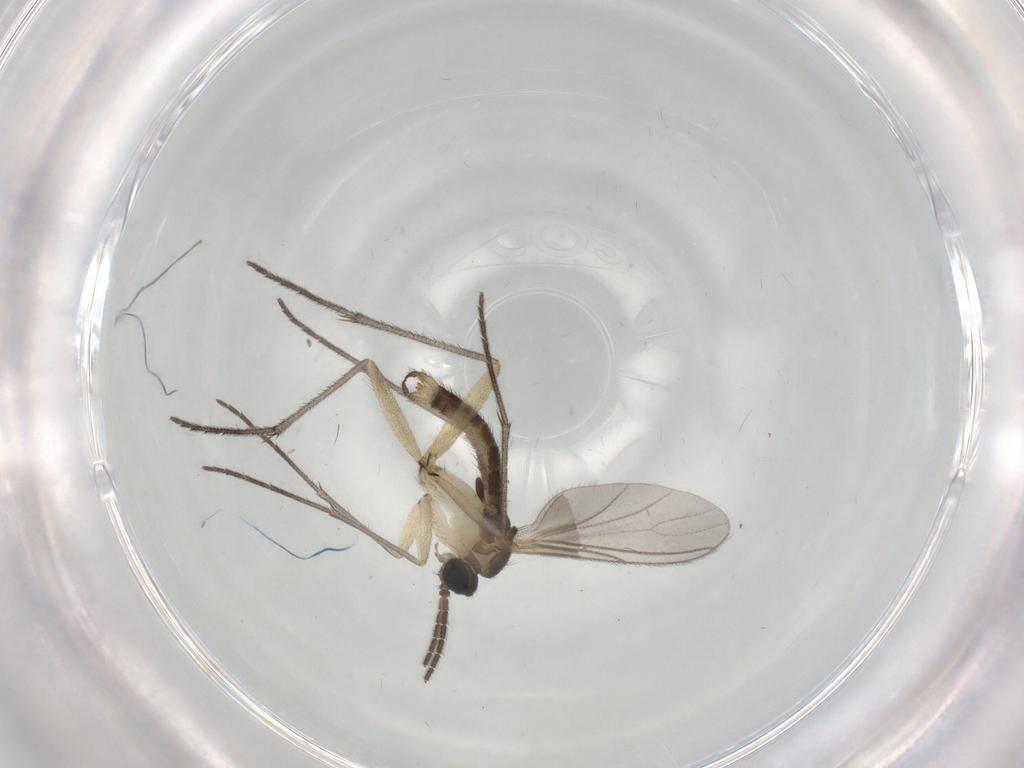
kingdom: Animalia
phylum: Arthropoda
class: Insecta
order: Diptera
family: Sciaridae
